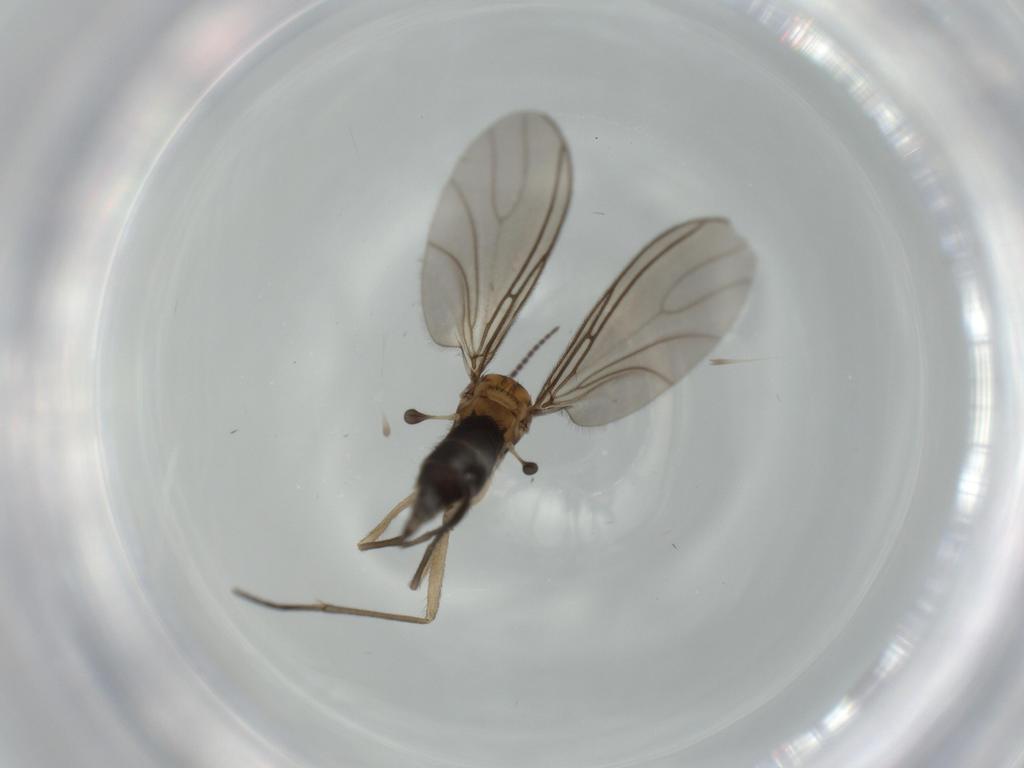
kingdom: Animalia
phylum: Arthropoda
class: Insecta
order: Diptera
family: Sciaridae
